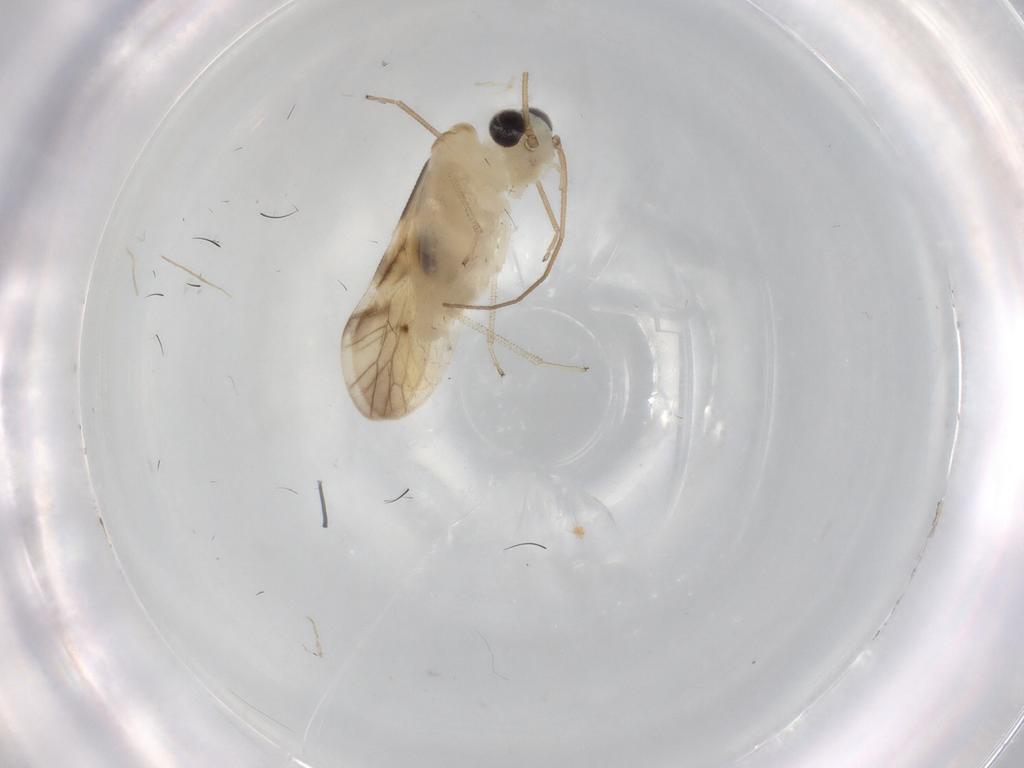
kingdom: Animalia
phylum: Arthropoda
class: Insecta
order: Psocodea
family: Caeciliusidae
